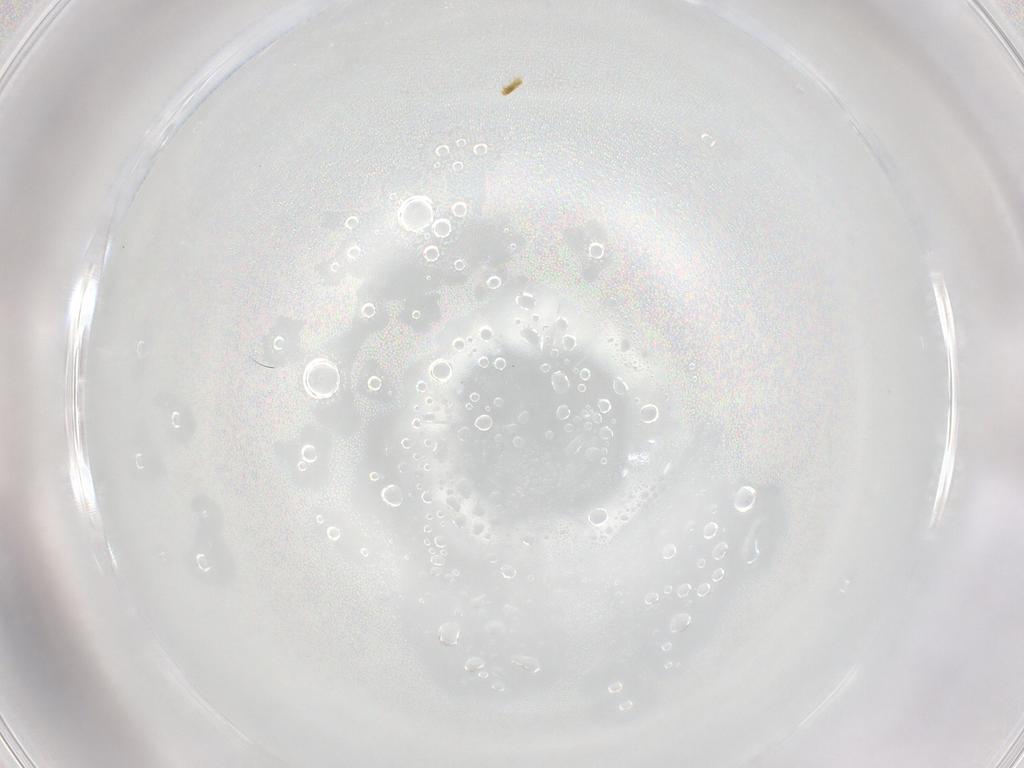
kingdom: Animalia
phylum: Arthropoda
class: Arachnida
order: Trombidiformes
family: Tydeidae
